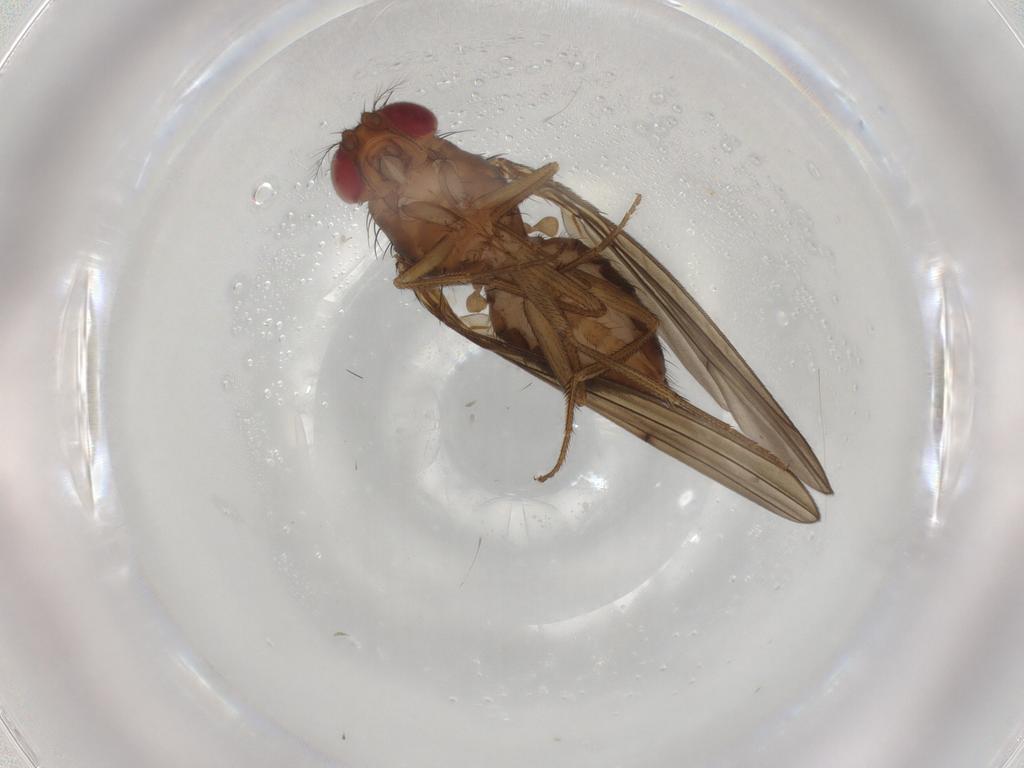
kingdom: Animalia
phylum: Arthropoda
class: Insecta
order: Diptera
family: Drosophilidae
